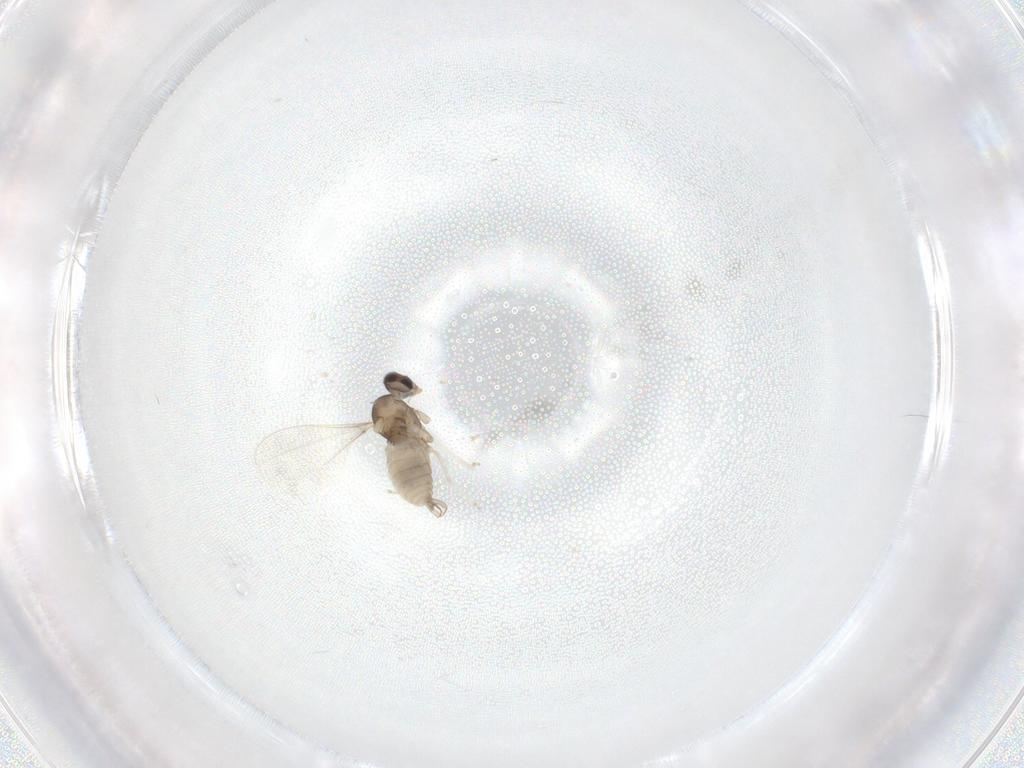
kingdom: Animalia
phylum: Arthropoda
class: Insecta
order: Diptera
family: Cecidomyiidae
